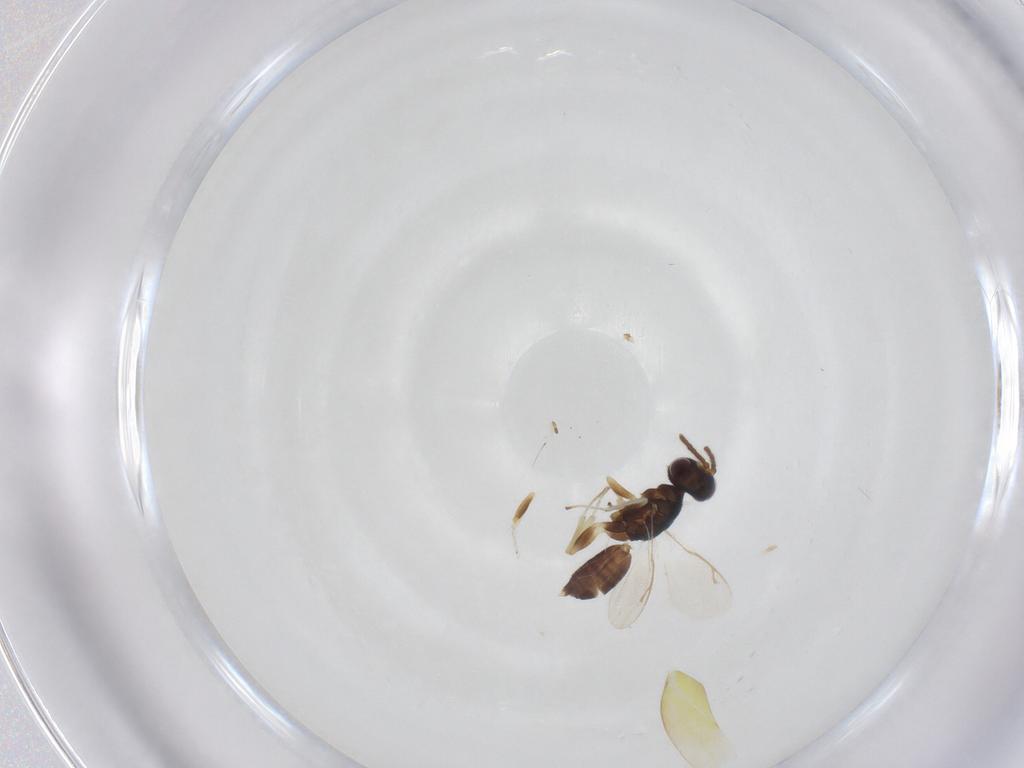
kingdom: Animalia
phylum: Arthropoda
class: Insecta
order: Hymenoptera
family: Eupelmidae
